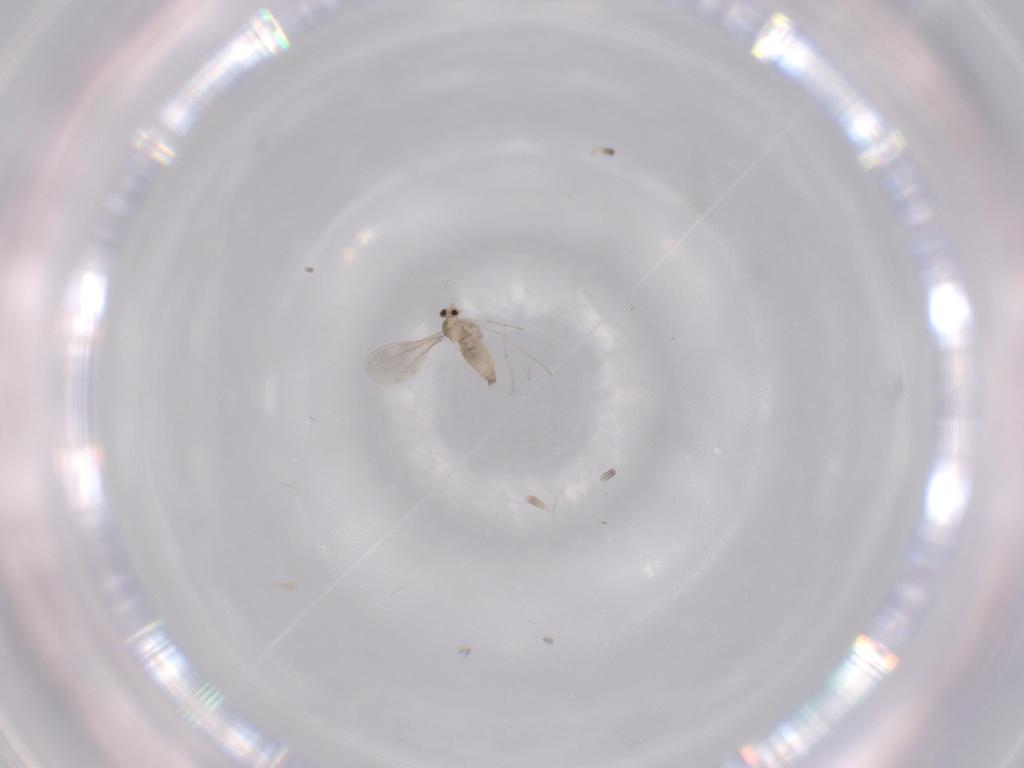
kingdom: Animalia
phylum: Arthropoda
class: Insecta
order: Diptera
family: Cecidomyiidae
